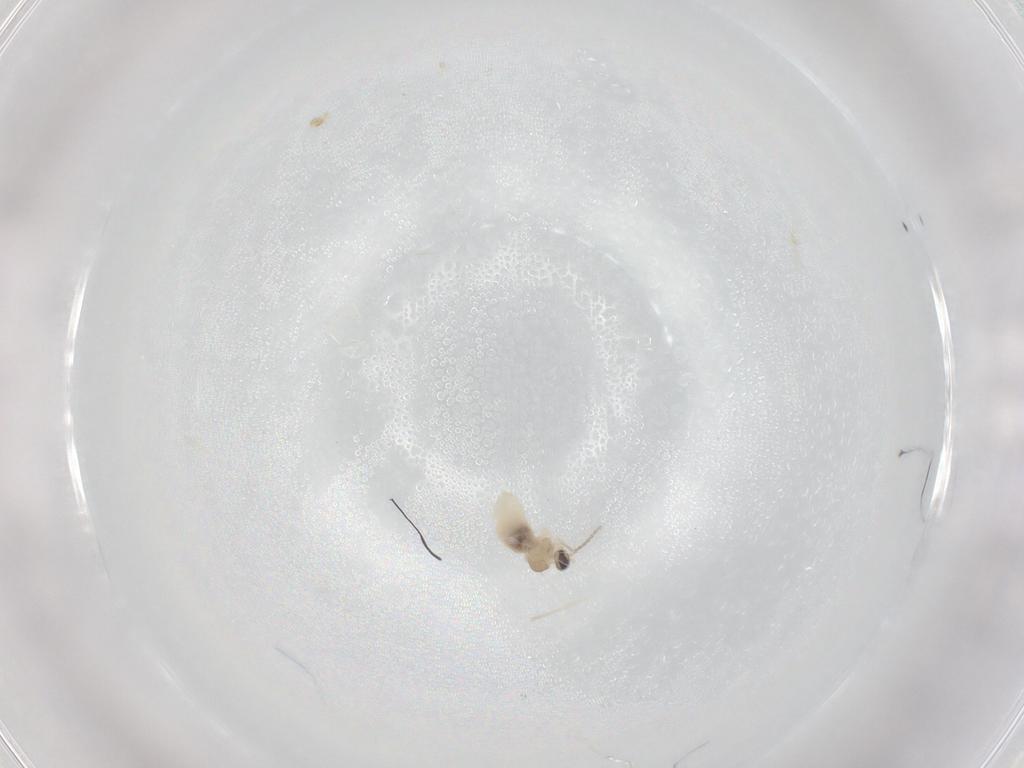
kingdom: Animalia
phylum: Arthropoda
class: Insecta
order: Diptera
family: Cecidomyiidae
